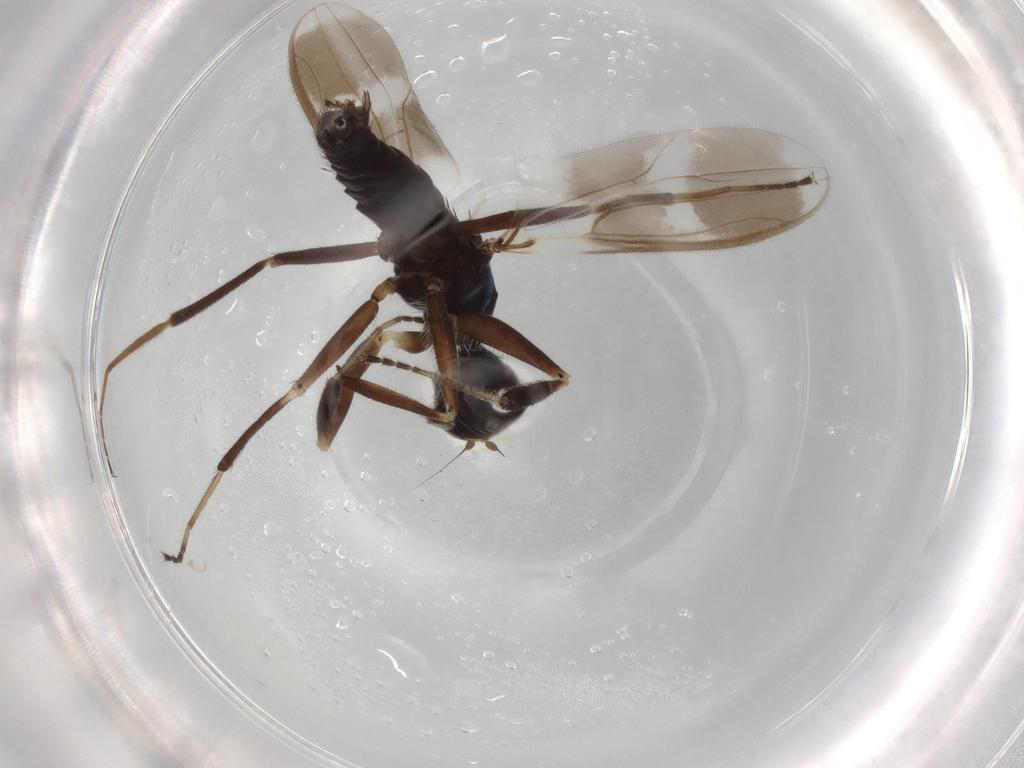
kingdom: Animalia
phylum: Arthropoda
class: Insecta
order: Diptera
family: Hybotidae
